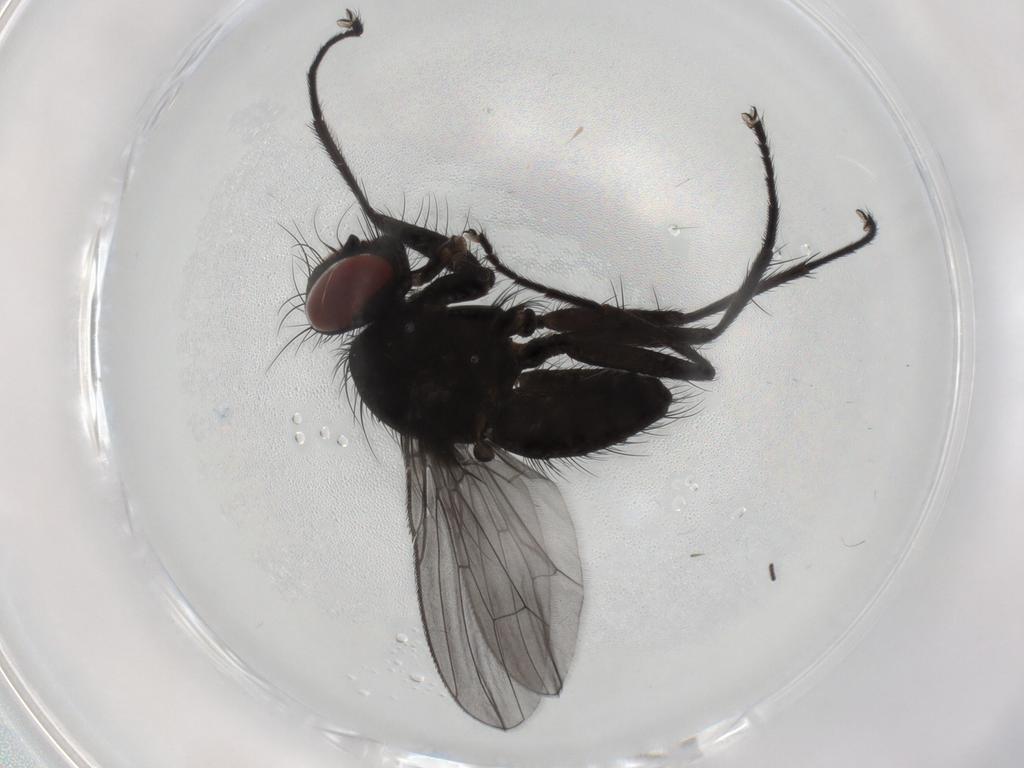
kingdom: Animalia
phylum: Arthropoda
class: Insecta
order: Diptera
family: Muscidae
